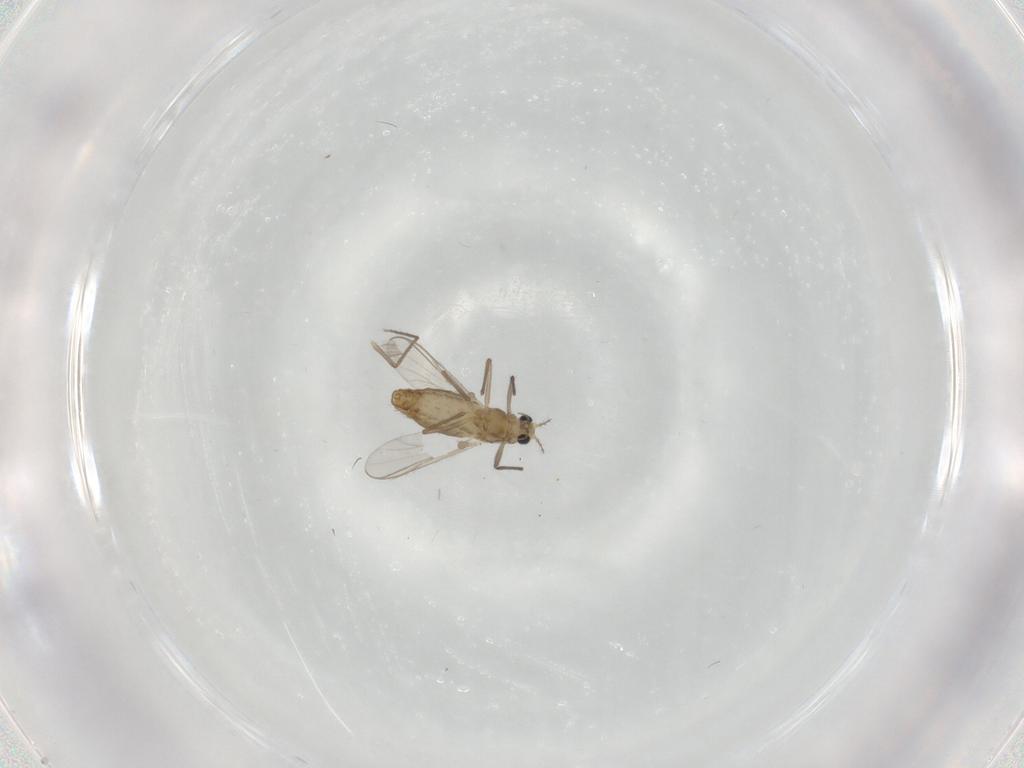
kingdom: Animalia
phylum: Arthropoda
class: Insecta
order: Diptera
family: Chironomidae
